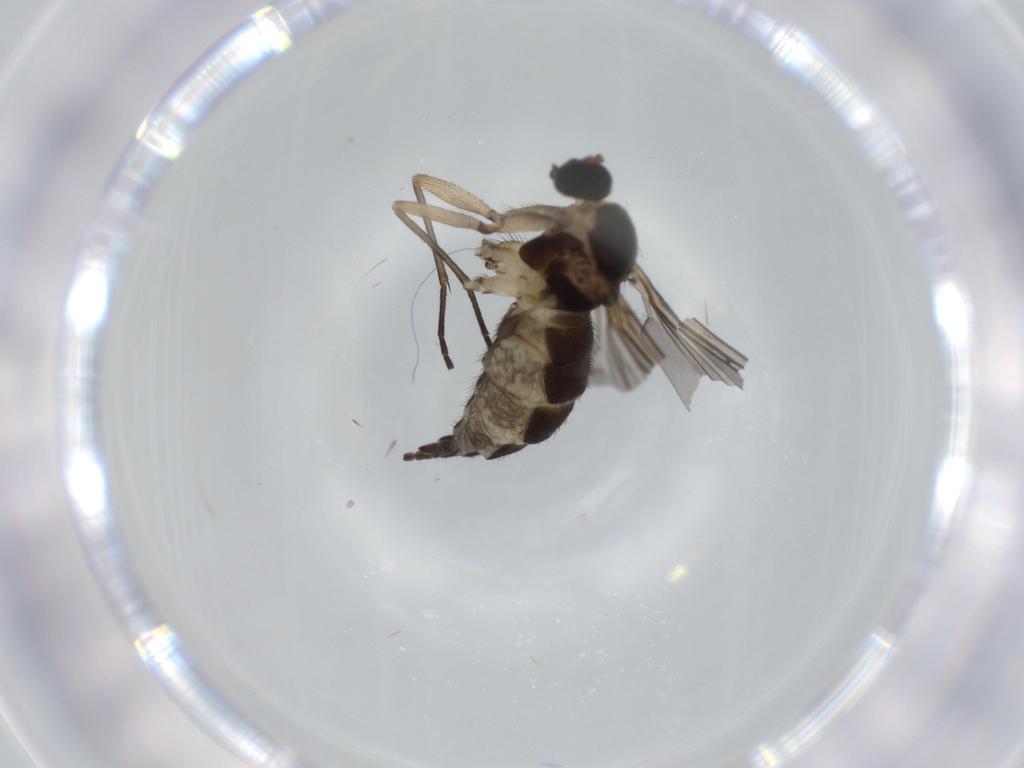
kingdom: Animalia
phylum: Arthropoda
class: Insecta
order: Diptera
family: Sciaridae
